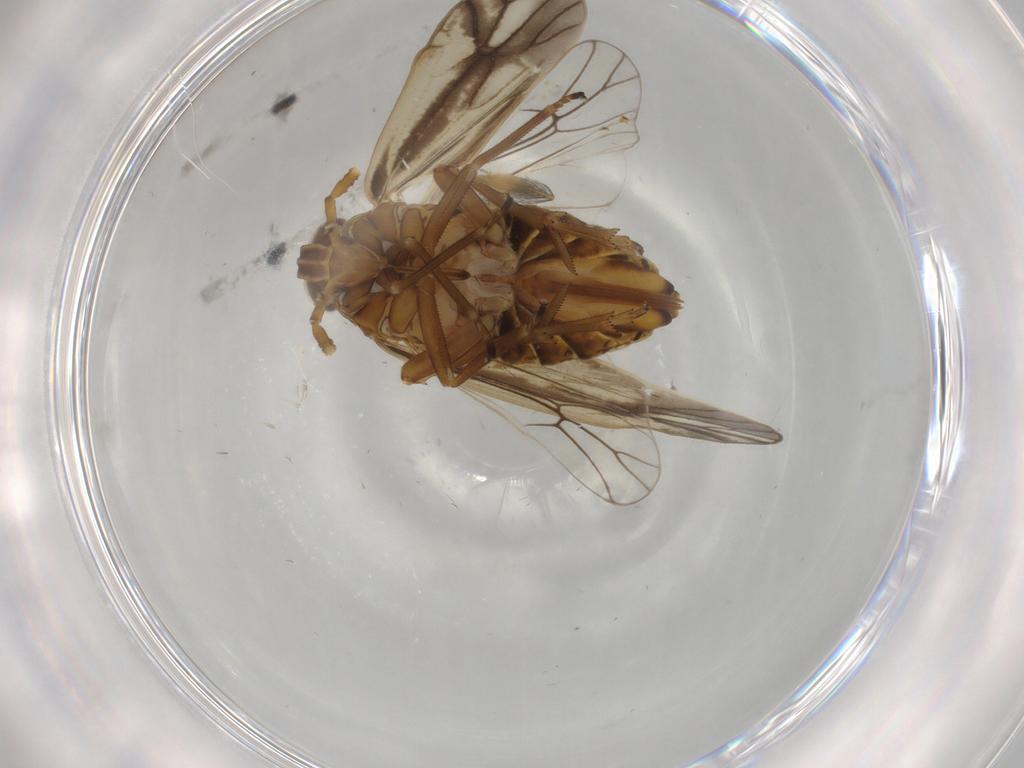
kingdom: Animalia
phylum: Arthropoda
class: Insecta
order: Hemiptera
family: Delphacidae
